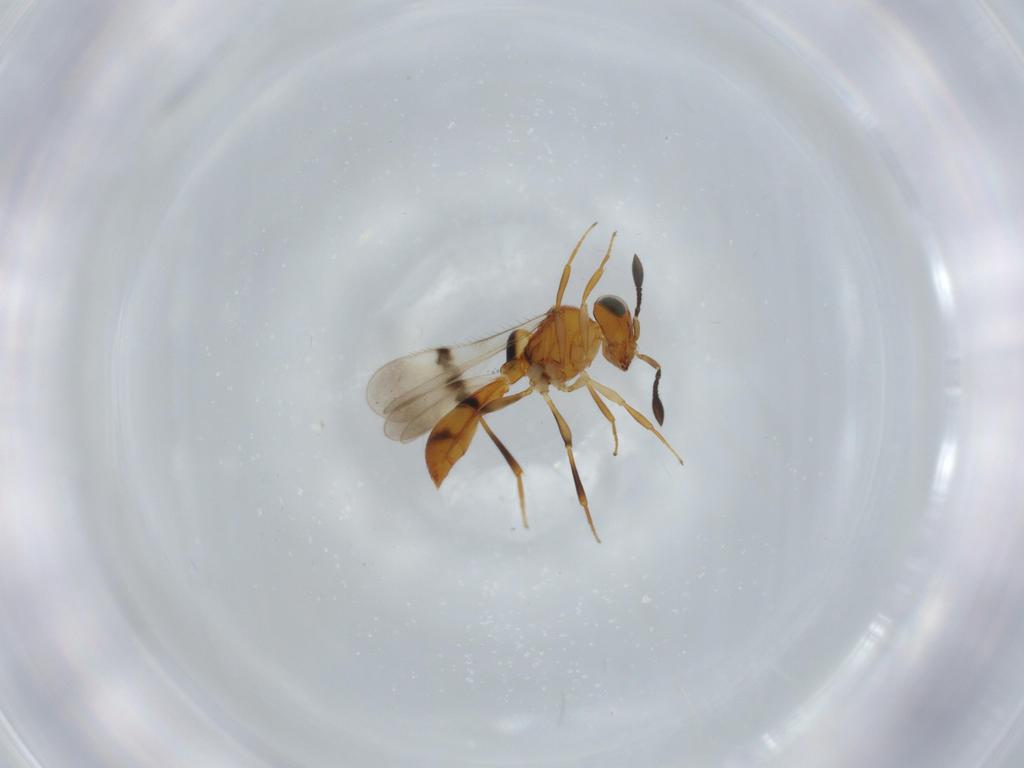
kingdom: Animalia
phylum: Arthropoda
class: Insecta
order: Hymenoptera
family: Scelionidae
